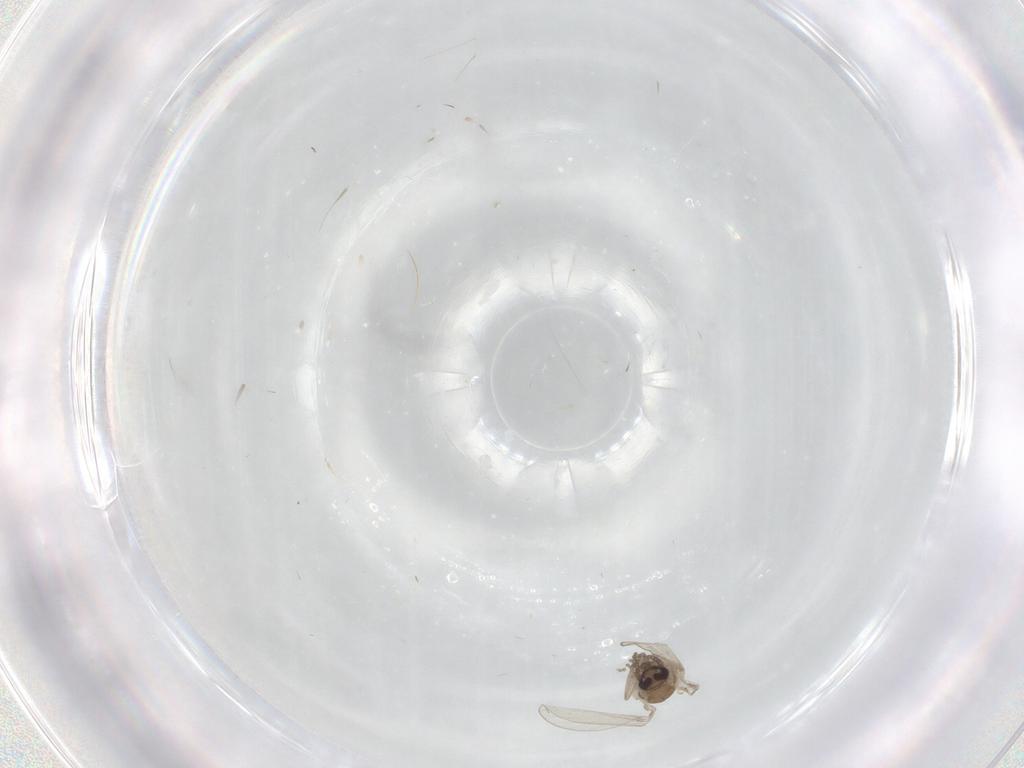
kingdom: Animalia
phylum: Arthropoda
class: Insecta
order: Diptera
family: Psychodidae
